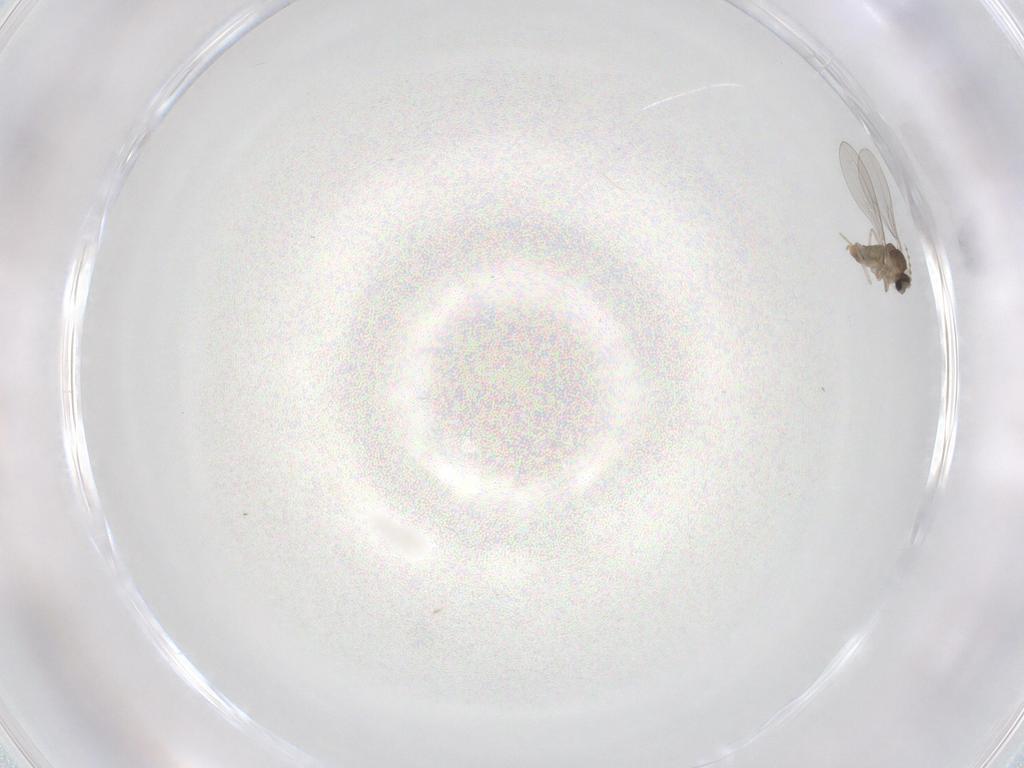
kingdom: Animalia
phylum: Arthropoda
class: Insecta
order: Diptera
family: Cecidomyiidae
